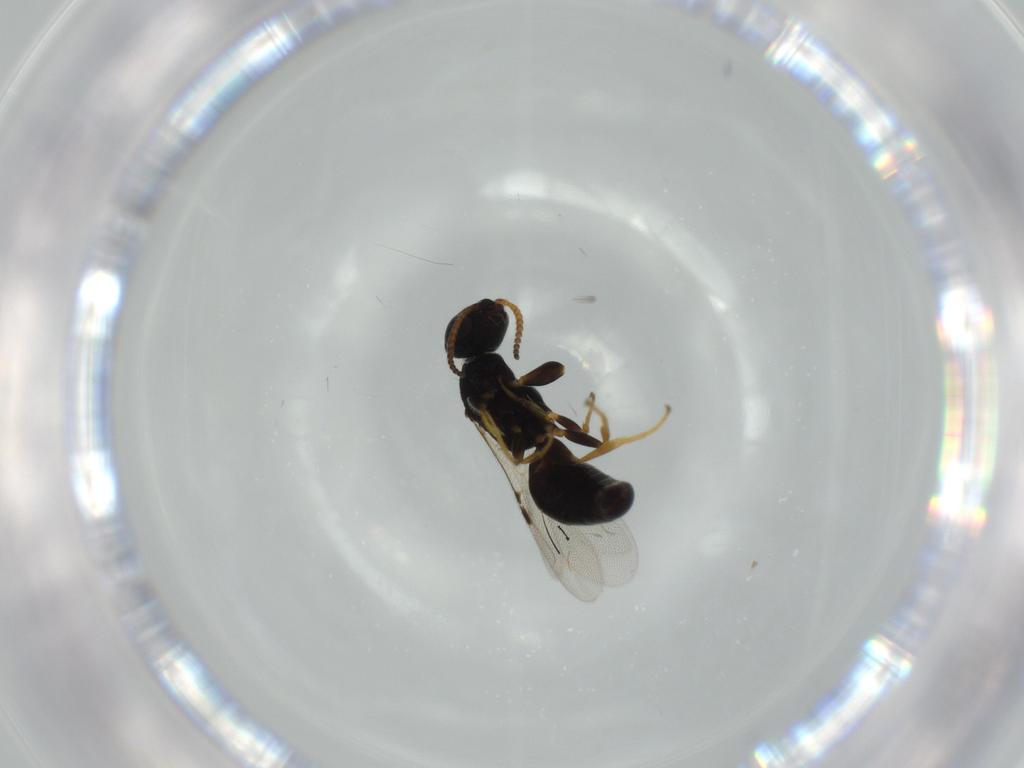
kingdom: Animalia
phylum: Arthropoda
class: Insecta
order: Hymenoptera
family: Bethylidae
